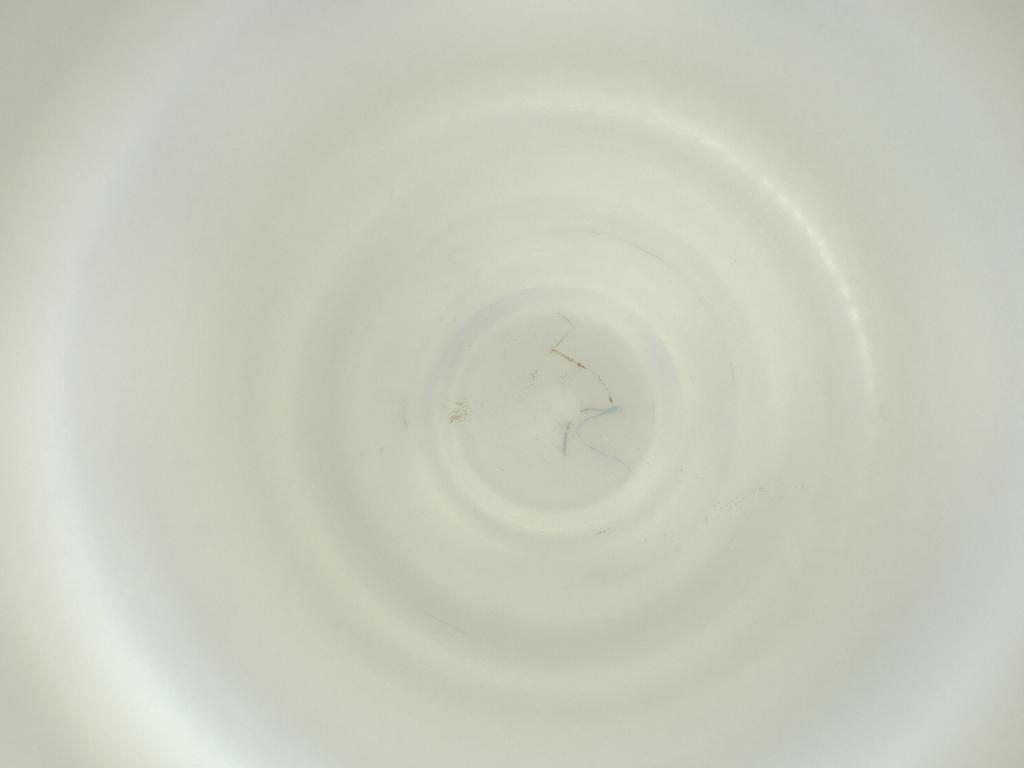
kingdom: Animalia
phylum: Arthropoda
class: Insecta
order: Diptera
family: Cecidomyiidae
